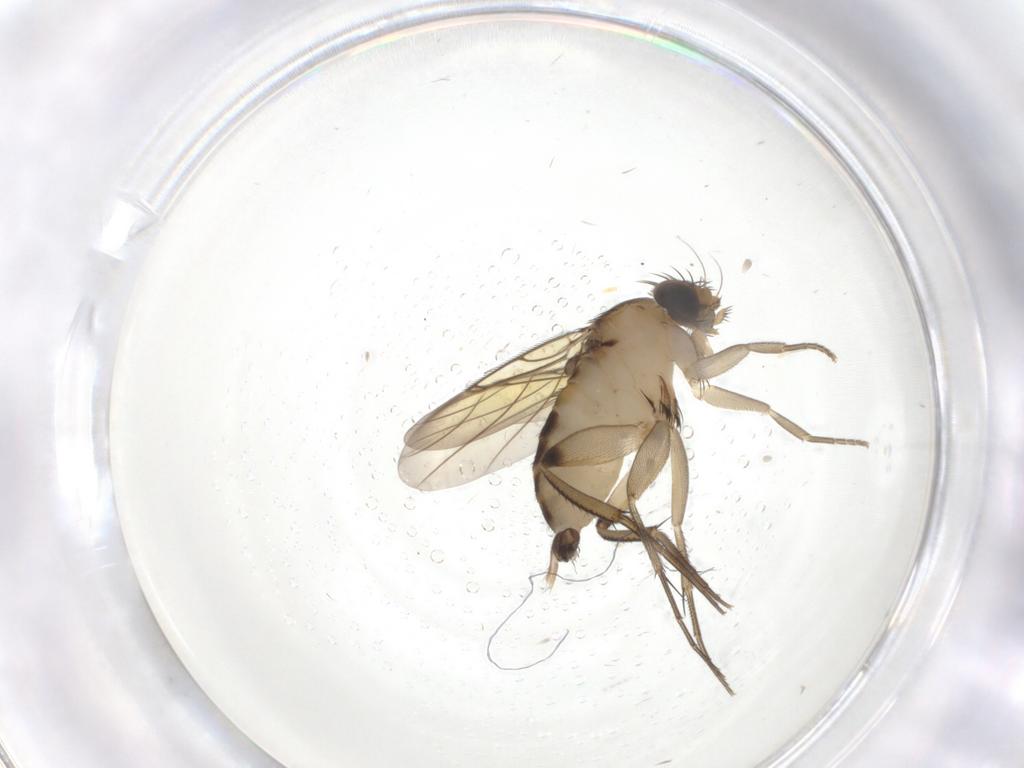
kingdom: Animalia
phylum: Arthropoda
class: Insecta
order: Diptera
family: Phoridae
